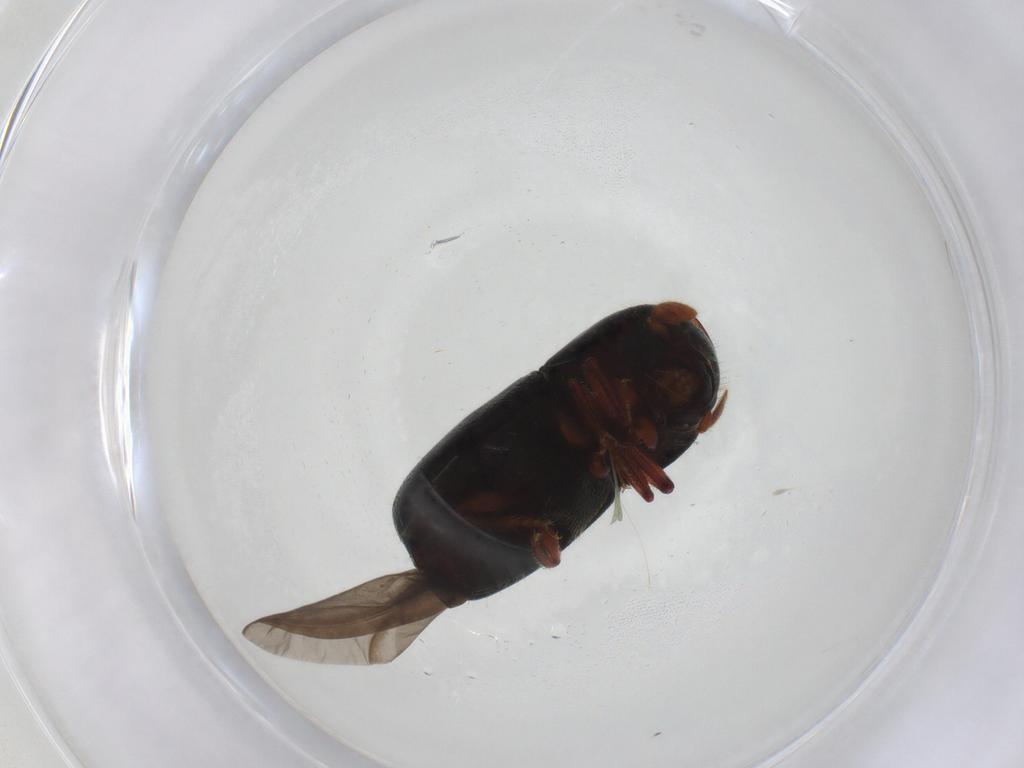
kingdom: Animalia
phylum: Arthropoda
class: Insecta
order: Coleoptera
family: Curculionidae
